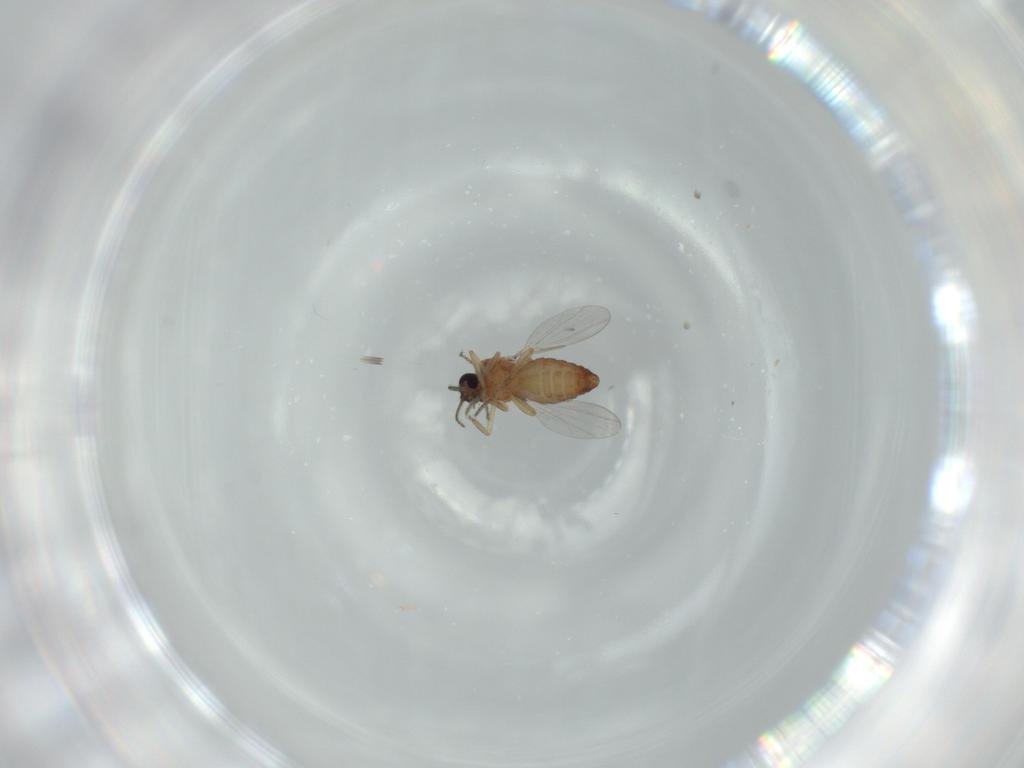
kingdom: Animalia
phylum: Arthropoda
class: Insecta
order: Diptera
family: Ceratopogonidae
